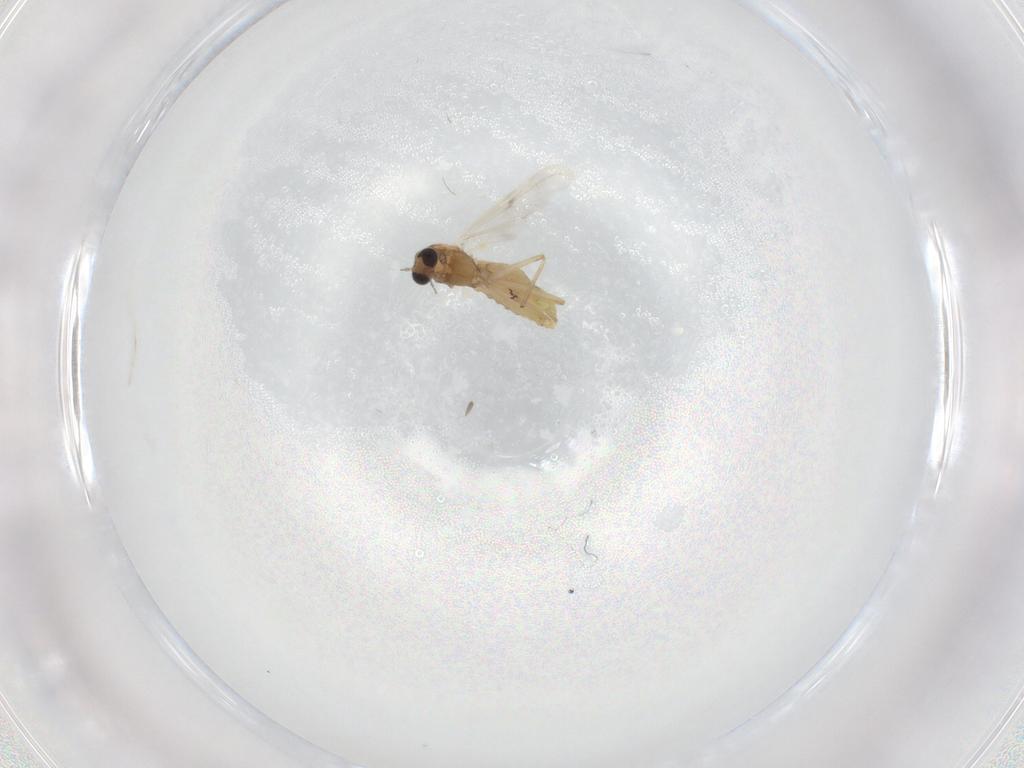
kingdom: Animalia
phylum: Arthropoda
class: Insecta
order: Diptera
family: Chironomidae
